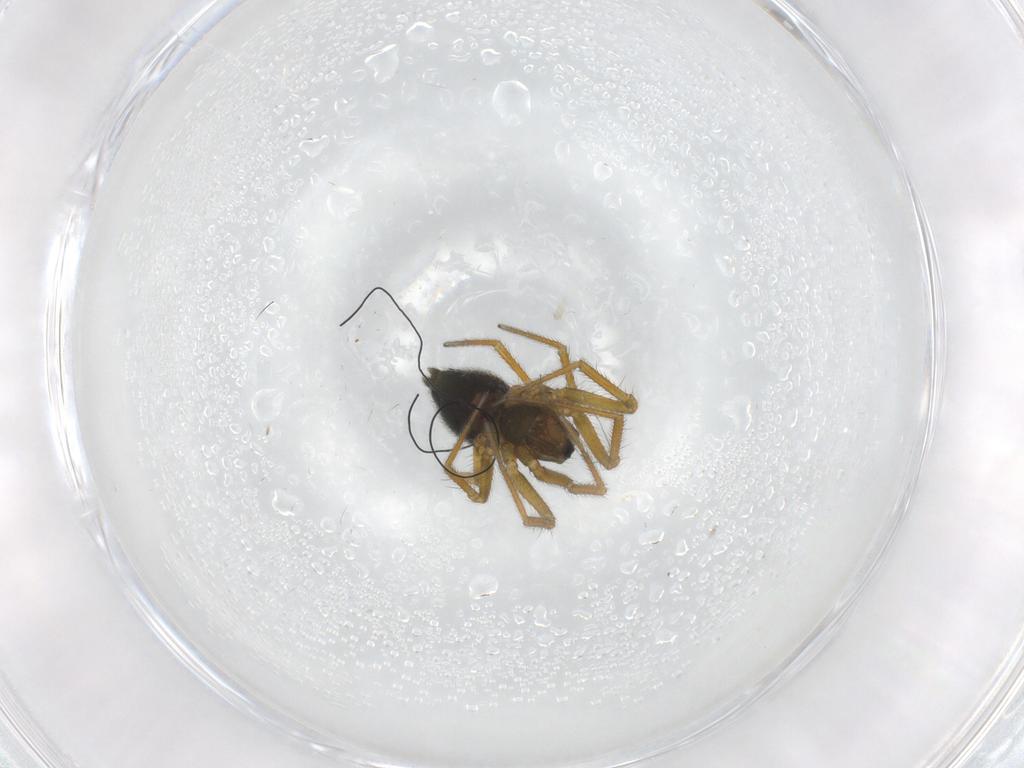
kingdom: Animalia
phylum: Arthropoda
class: Arachnida
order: Araneae
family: Linyphiidae
